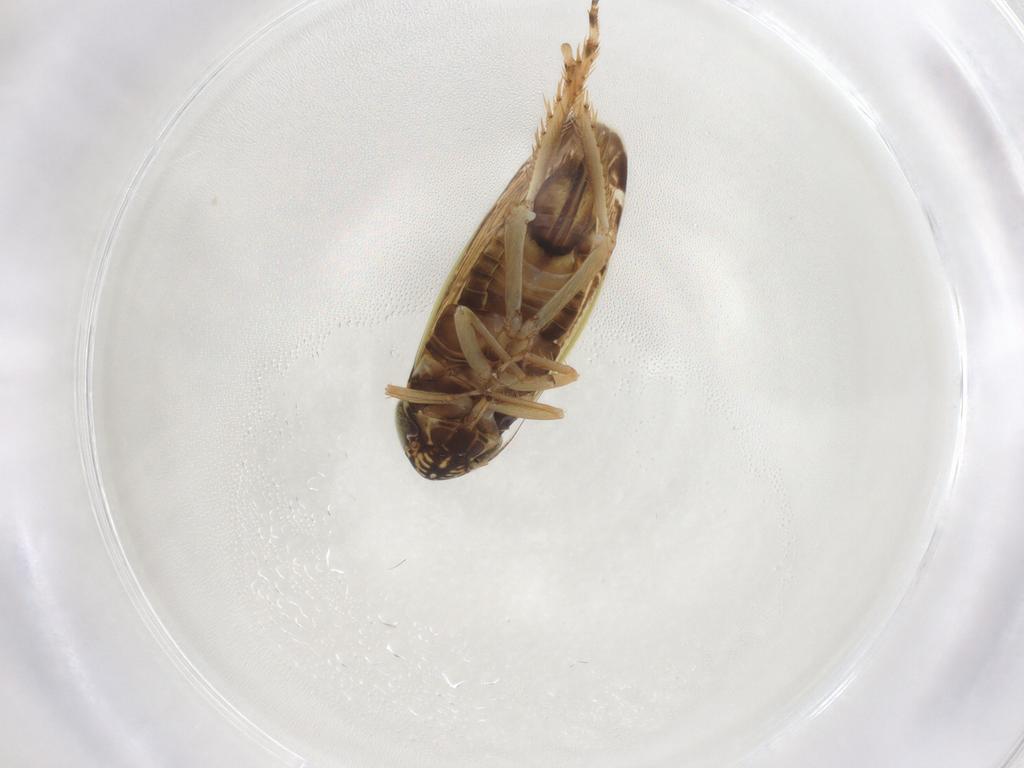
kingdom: Animalia
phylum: Arthropoda
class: Insecta
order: Hemiptera
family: Cicadellidae
